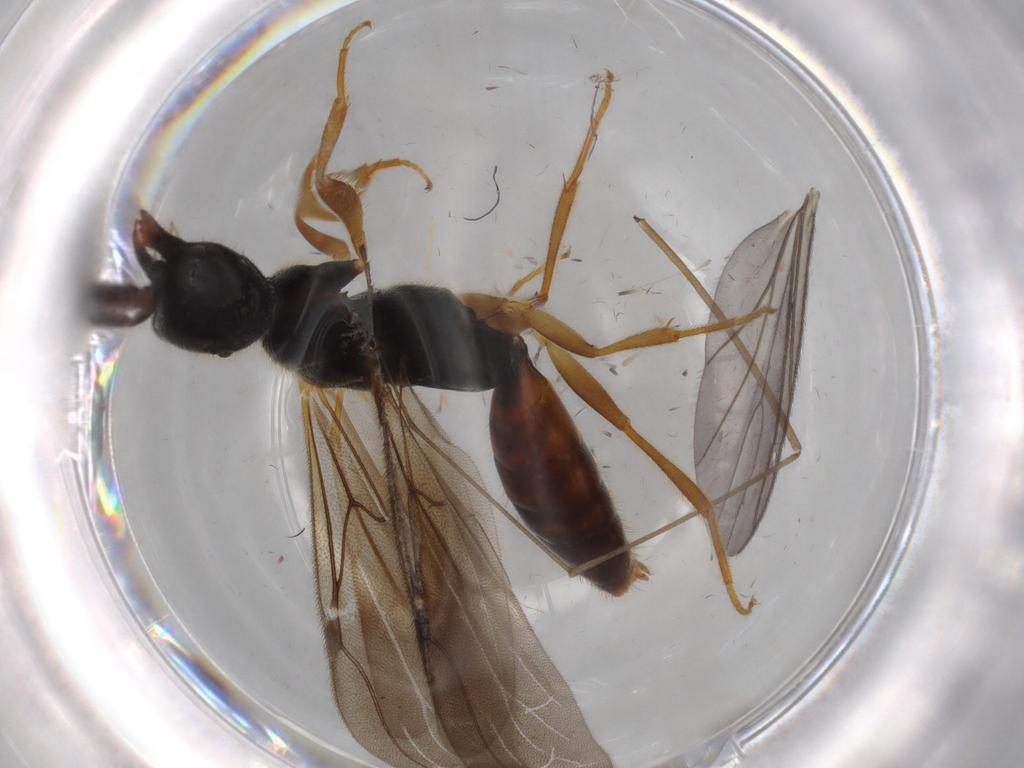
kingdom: Animalia
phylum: Arthropoda
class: Insecta
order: Hymenoptera
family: Bethylidae
